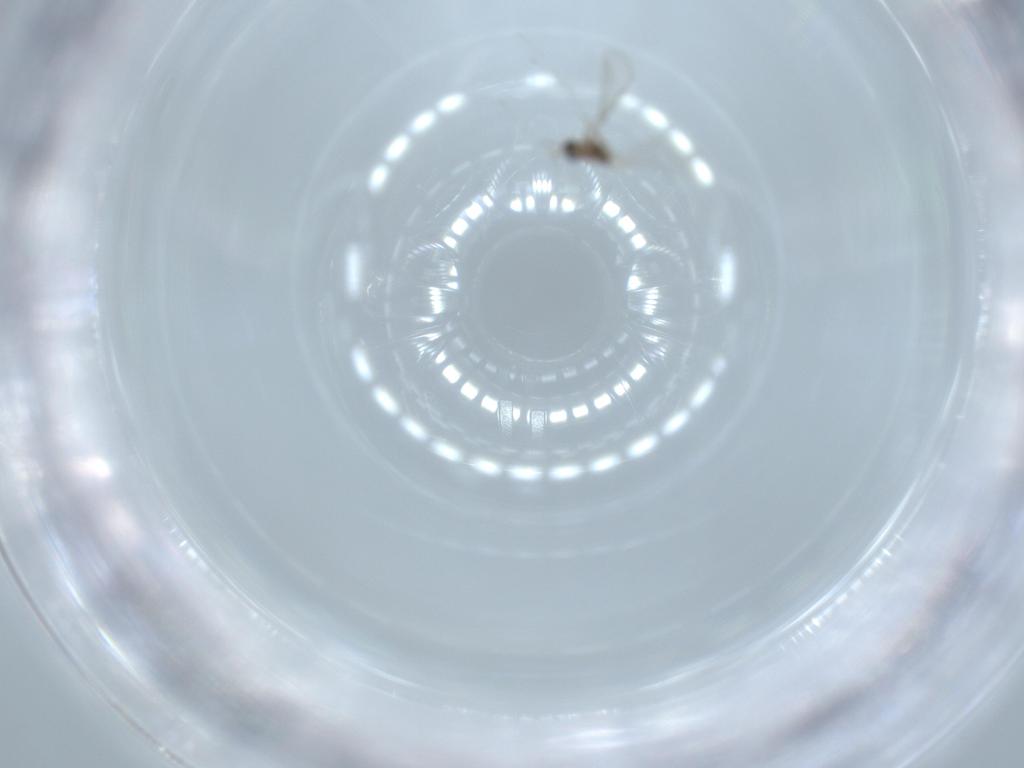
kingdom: Animalia
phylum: Arthropoda
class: Insecta
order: Diptera
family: Cecidomyiidae
